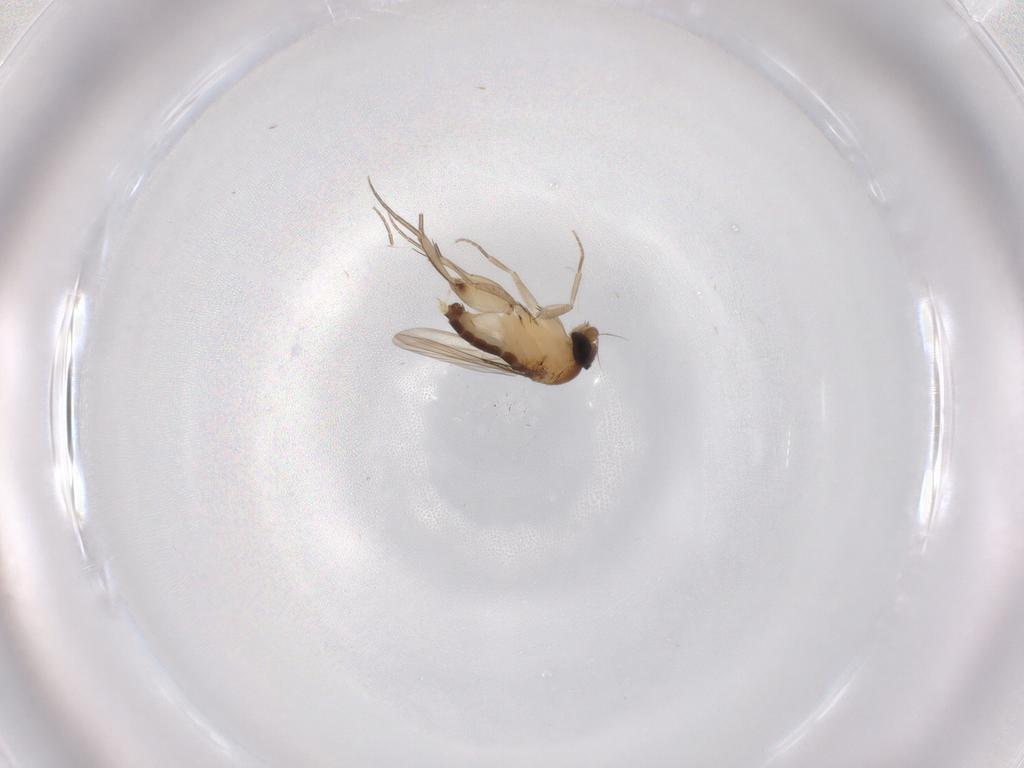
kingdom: Animalia
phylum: Arthropoda
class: Insecta
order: Diptera
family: Phoridae
